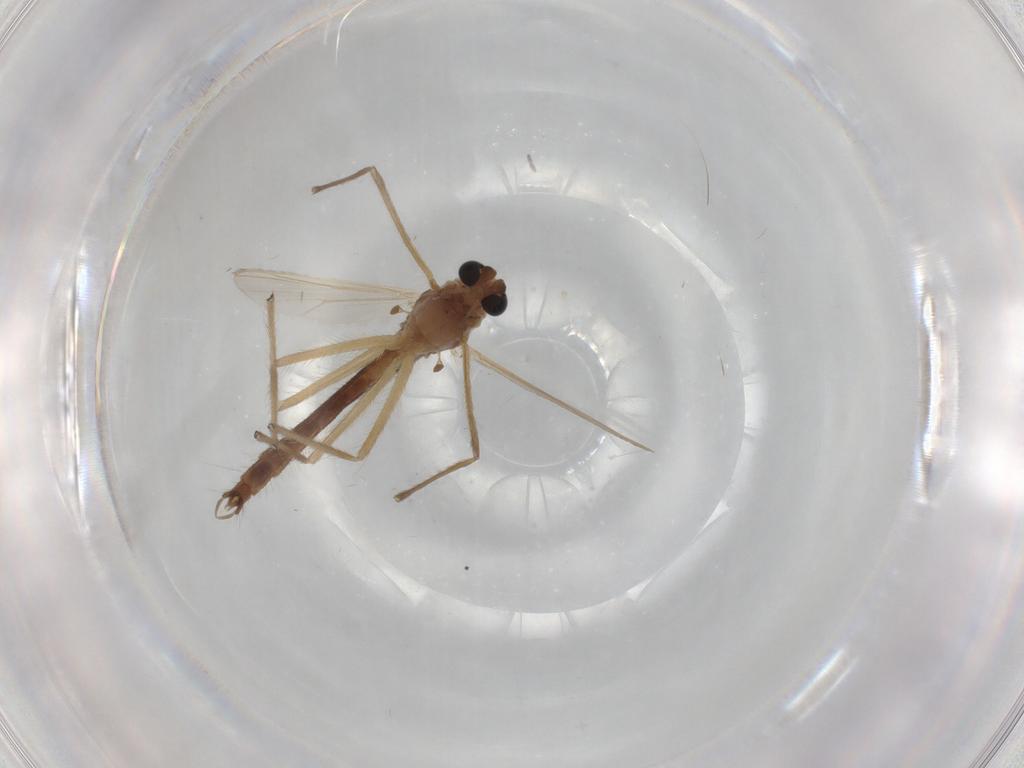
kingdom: Animalia
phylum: Arthropoda
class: Insecta
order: Diptera
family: Chironomidae
